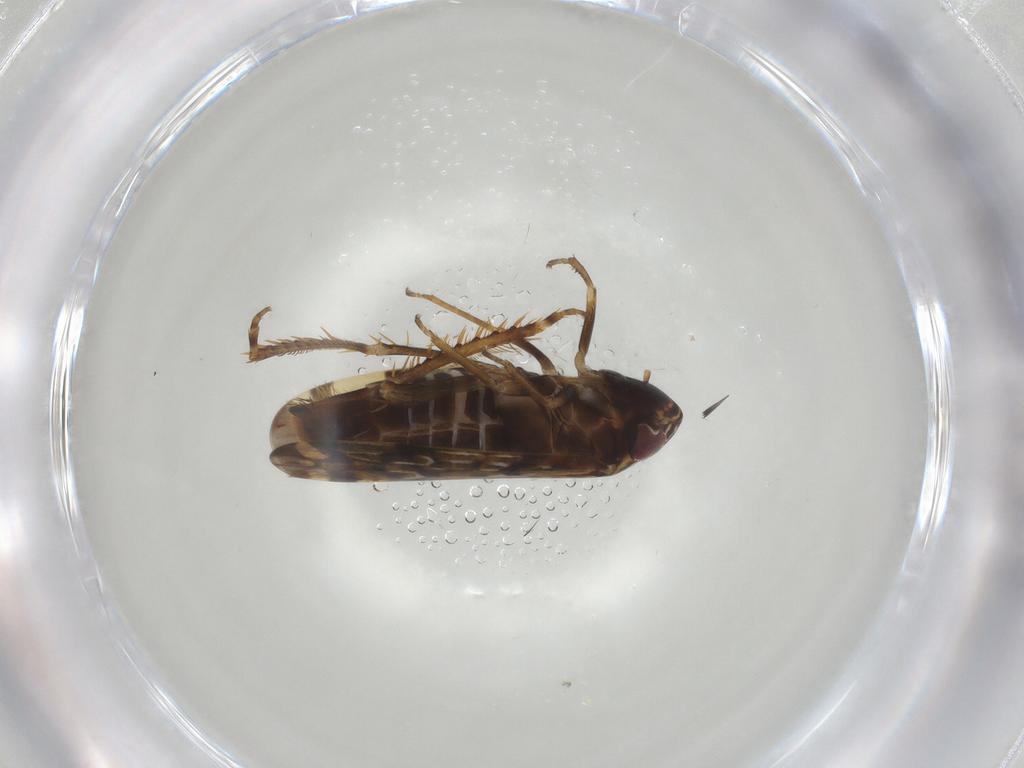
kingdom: Animalia
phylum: Arthropoda
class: Insecta
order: Hemiptera
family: Cicadellidae
